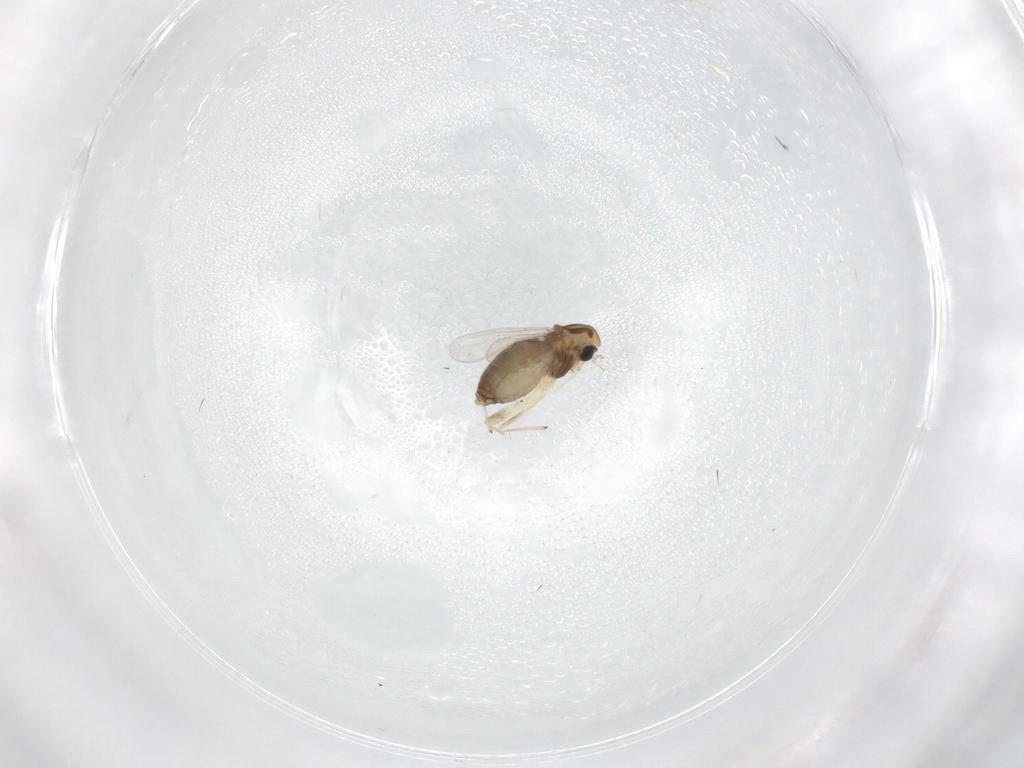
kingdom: Animalia
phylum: Arthropoda
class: Insecta
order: Diptera
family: Chironomidae
